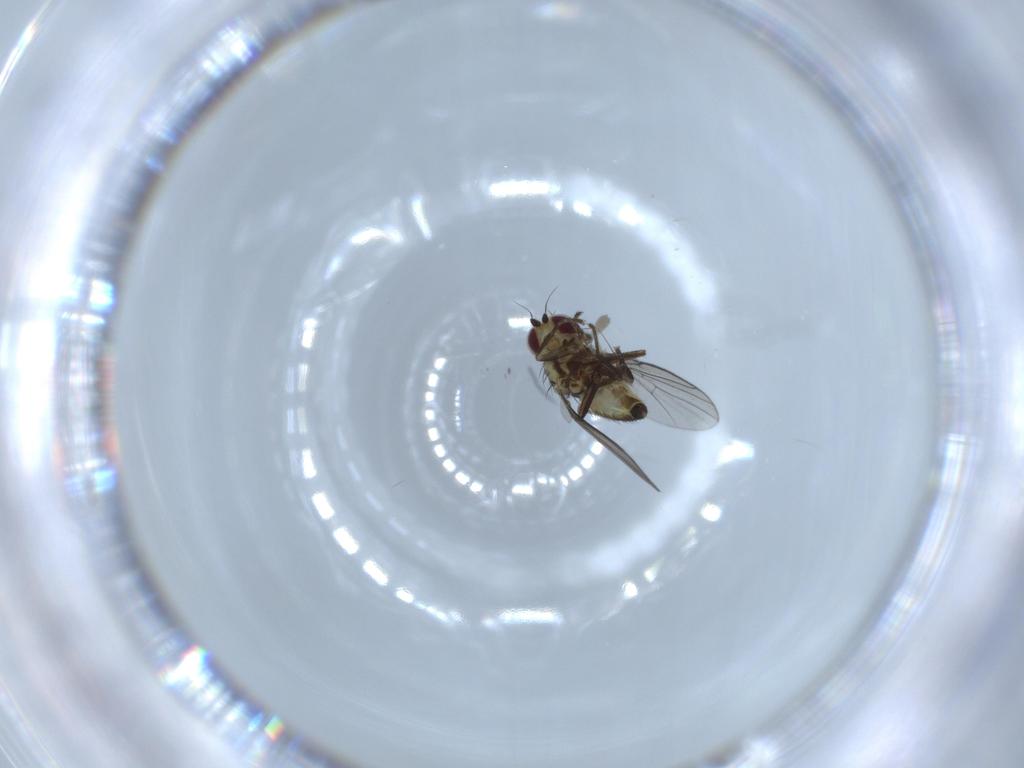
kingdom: Animalia
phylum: Arthropoda
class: Insecta
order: Diptera
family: Agromyzidae
